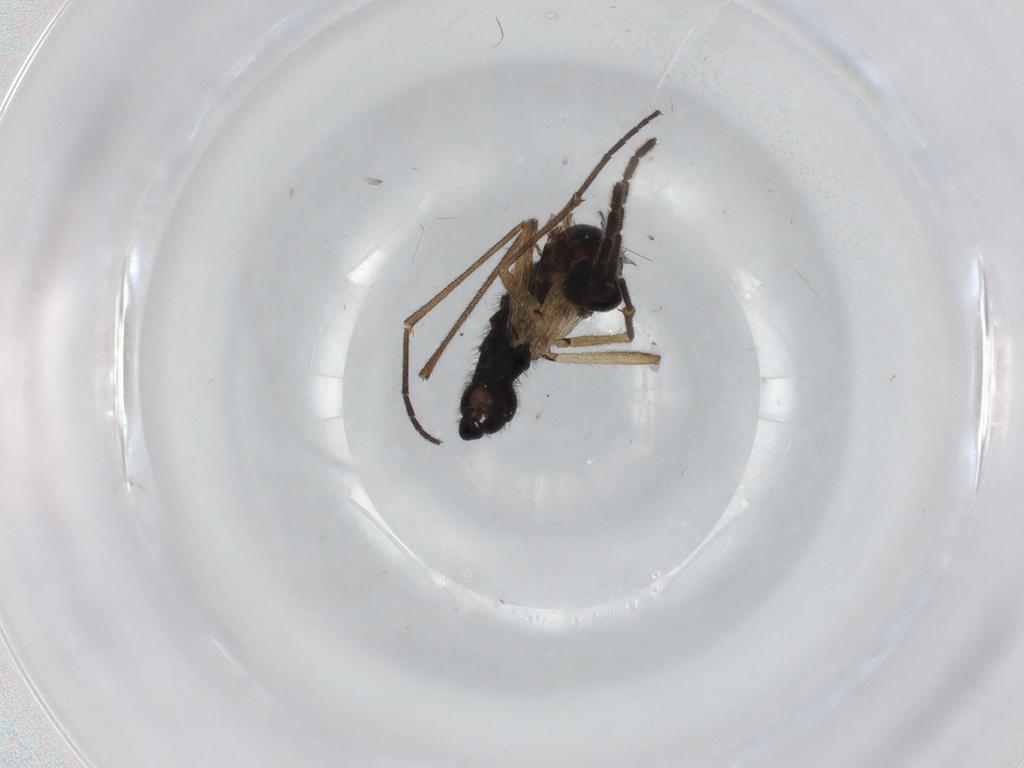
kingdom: Animalia
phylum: Arthropoda
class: Insecta
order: Diptera
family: Sciaridae
